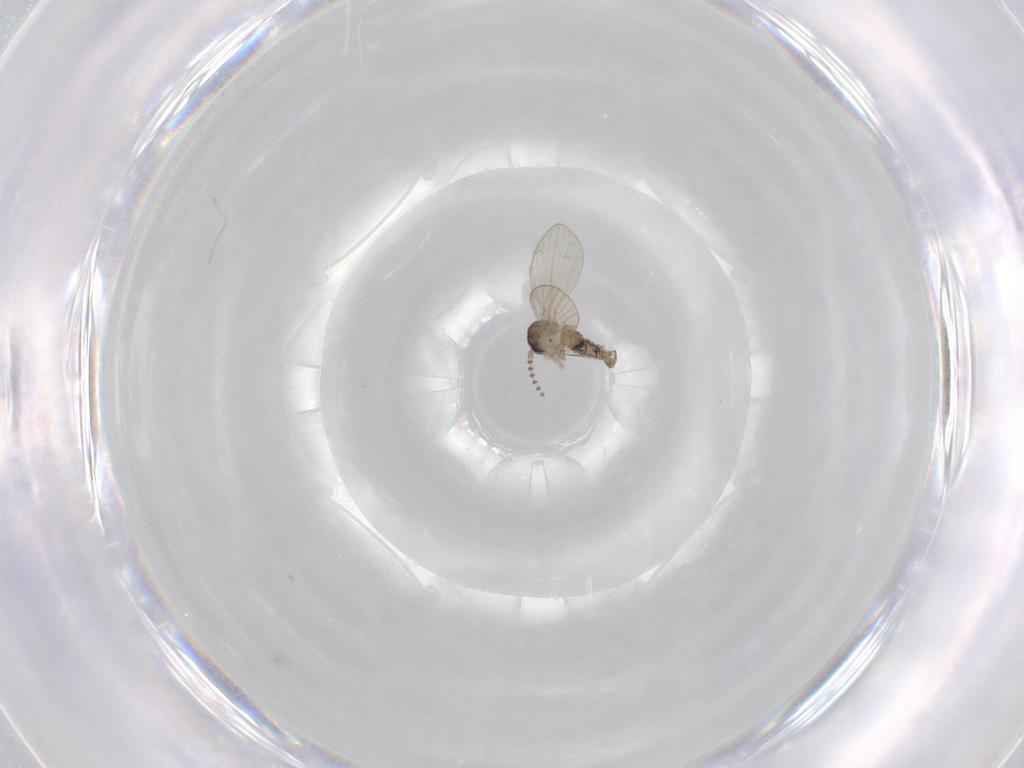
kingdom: Animalia
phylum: Arthropoda
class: Insecta
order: Diptera
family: Psychodidae
